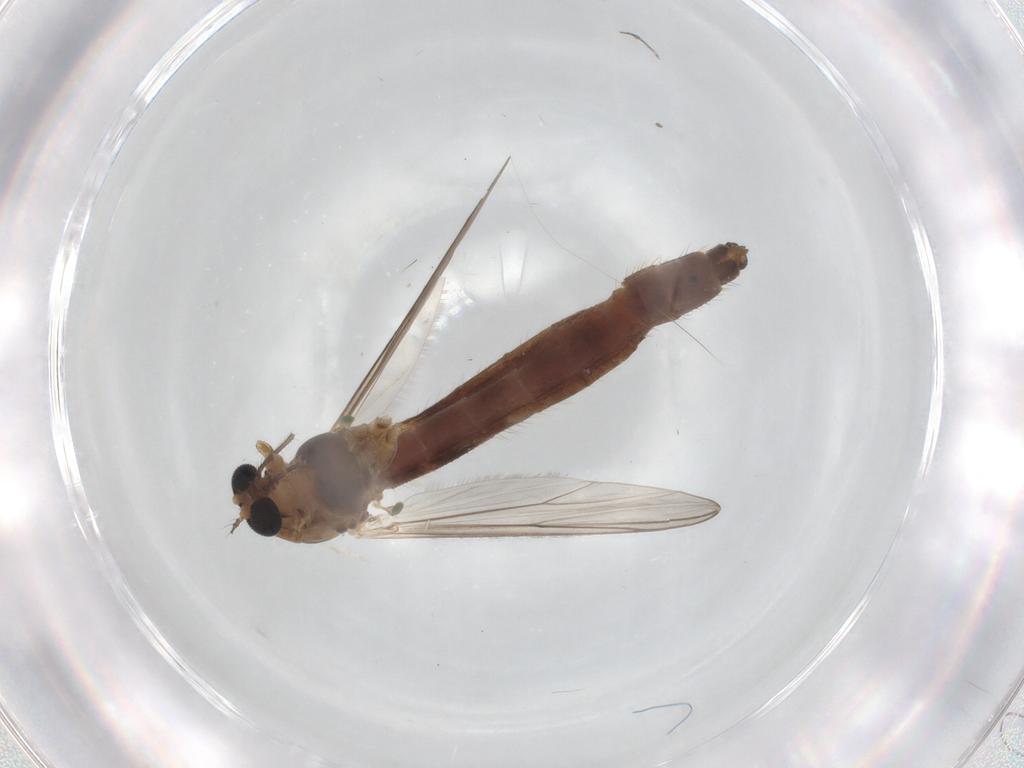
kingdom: Animalia
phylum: Arthropoda
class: Insecta
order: Diptera
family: Chironomidae
